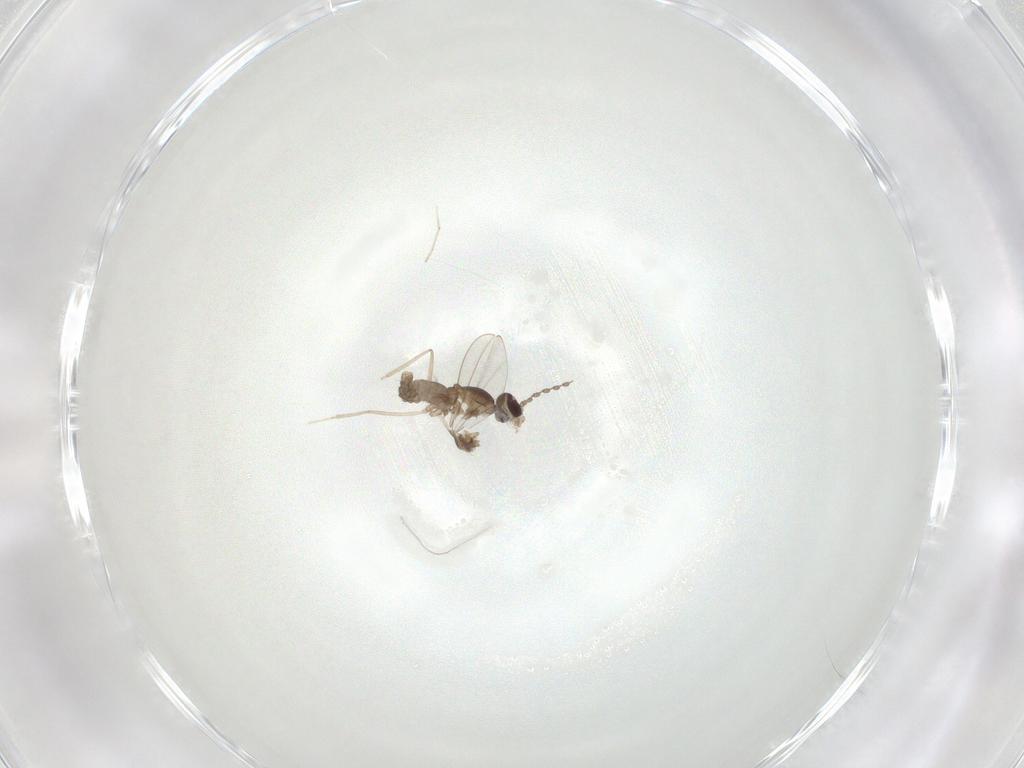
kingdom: Animalia
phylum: Arthropoda
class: Insecta
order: Diptera
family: Cecidomyiidae
